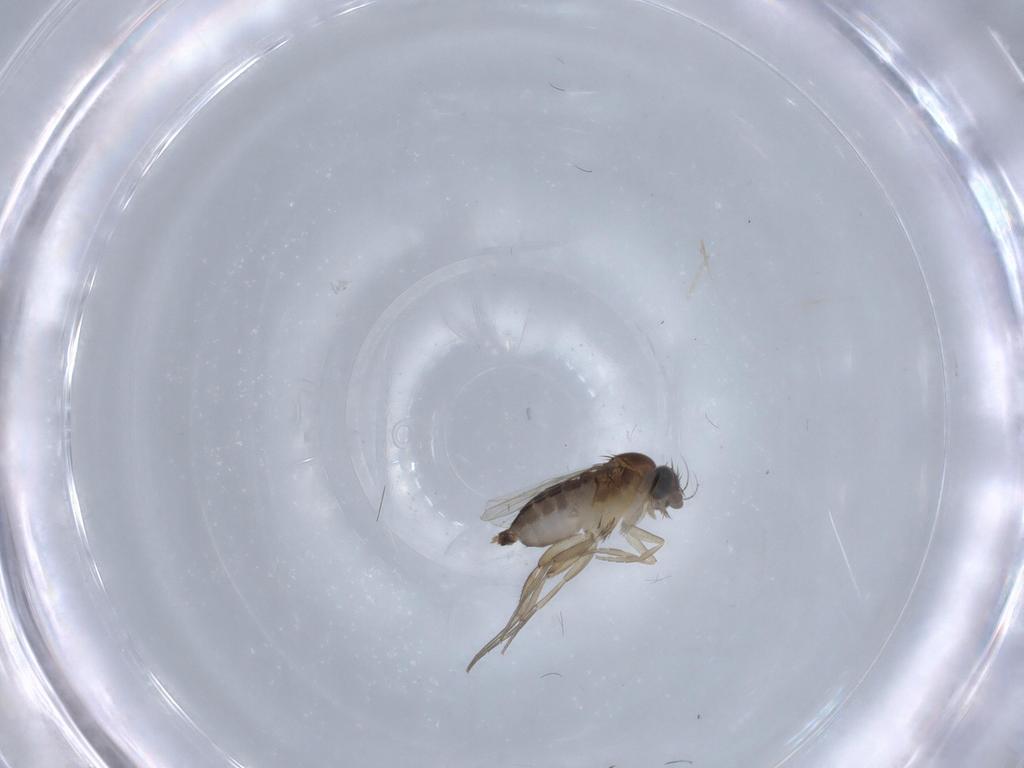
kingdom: Animalia
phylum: Arthropoda
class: Insecta
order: Diptera
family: Phoridae
